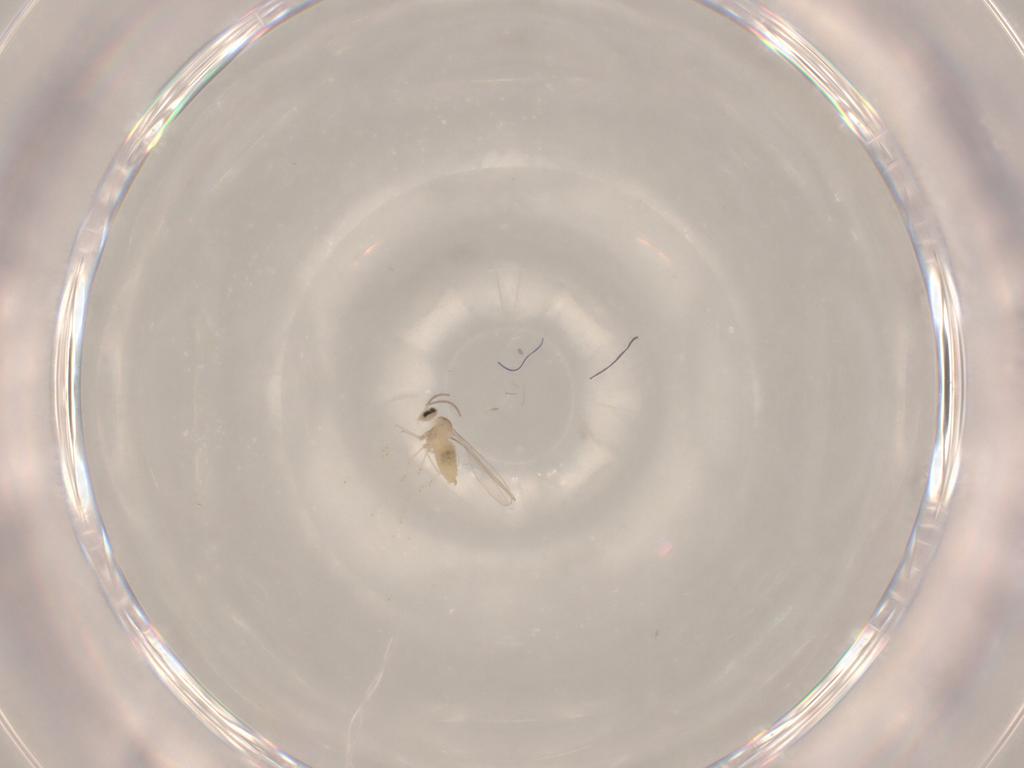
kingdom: Animalia
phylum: Arthropoda
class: Insecta
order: Diptera
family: Cecidomyiidae
